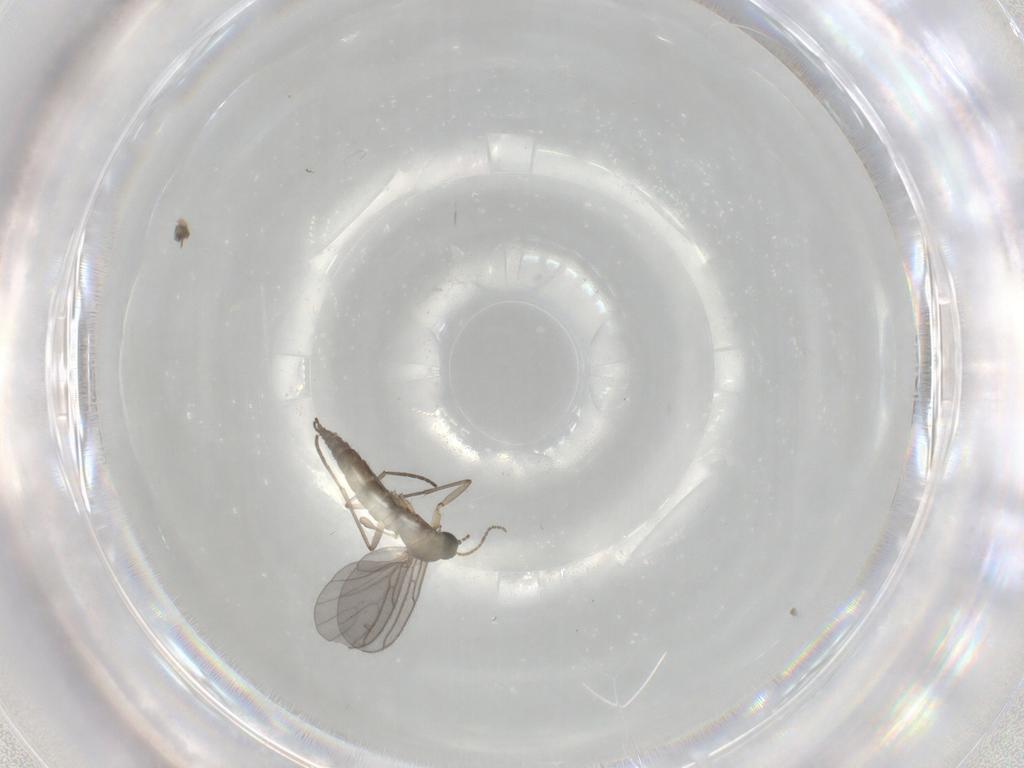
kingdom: Animalia
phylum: Arthropoda
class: Insecta
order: Diptera
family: Sciaridae
